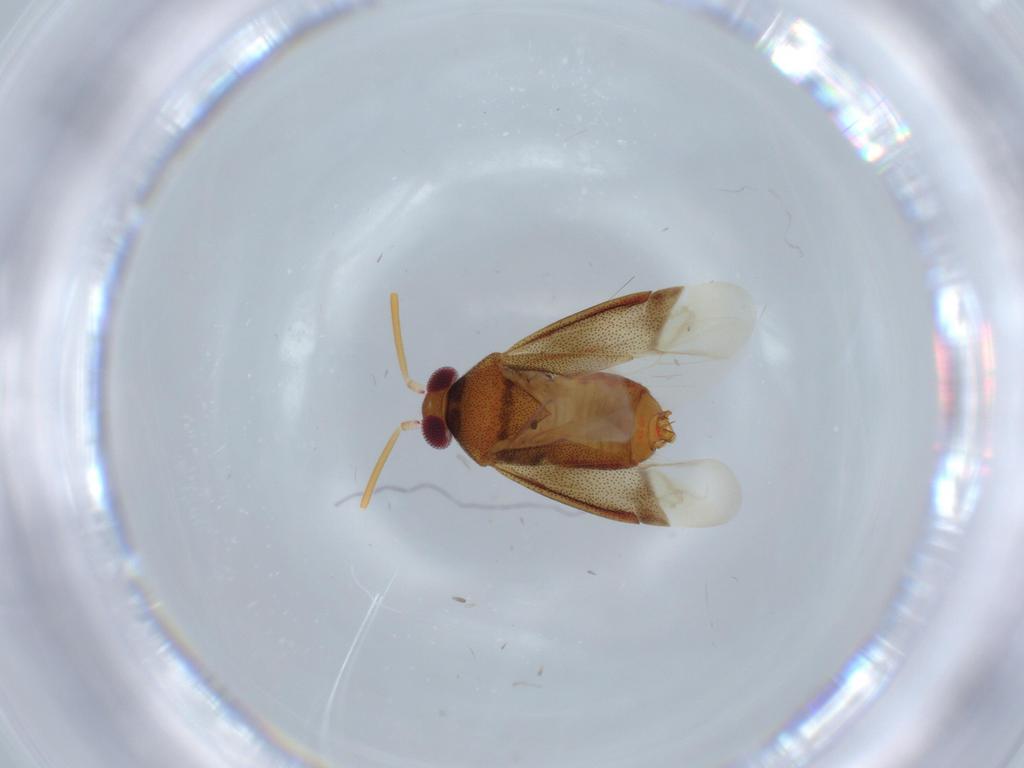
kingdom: Animalia
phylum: Arthropoda
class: Insecta
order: Hemiptera
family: Miridae
